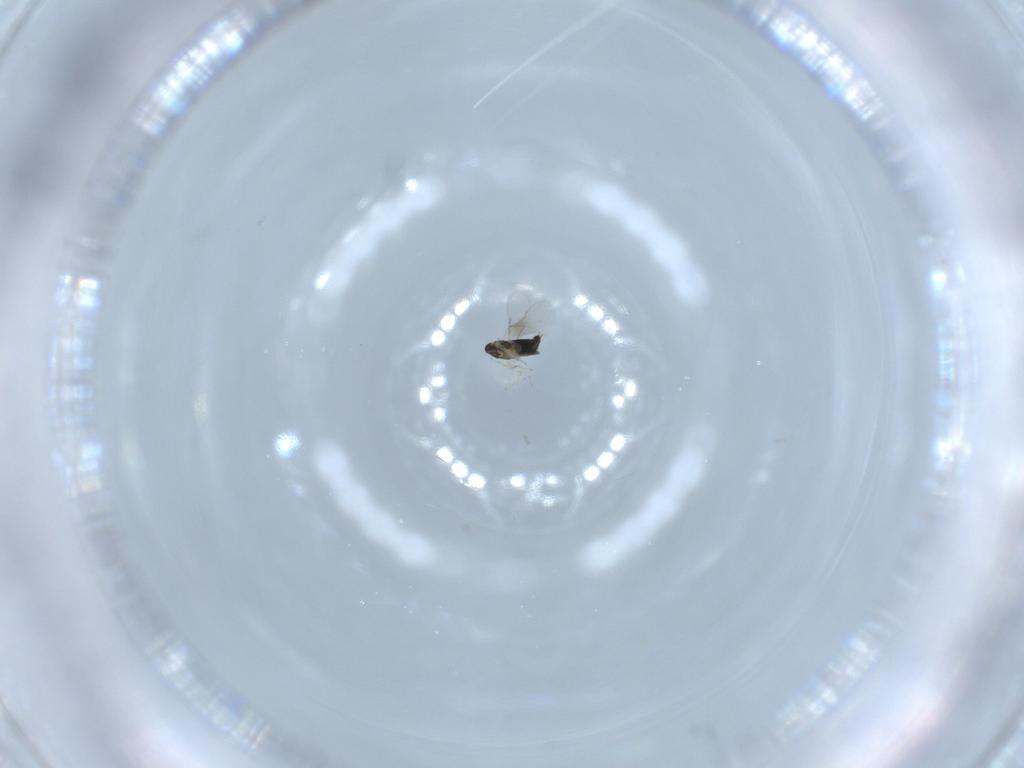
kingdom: Animalia
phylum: Arthropoda
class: Insecta
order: Hymenoptera
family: Aphelinidae
